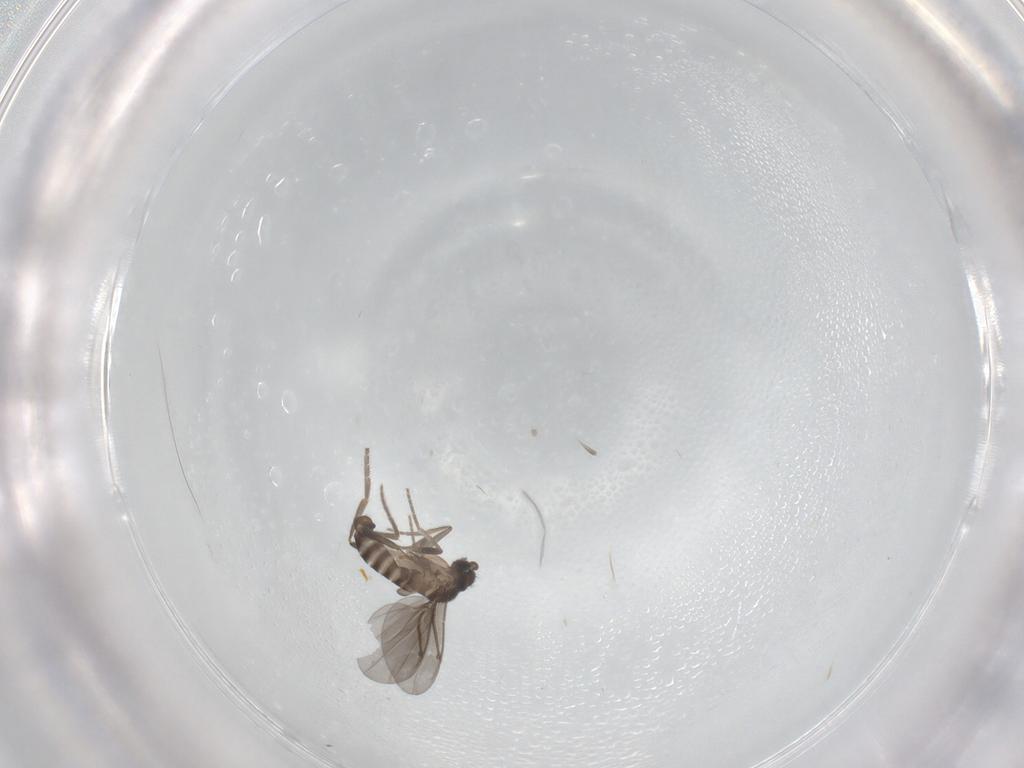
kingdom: Animalia
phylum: Arthropoda
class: Insecta
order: Diptera
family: Phoridae
